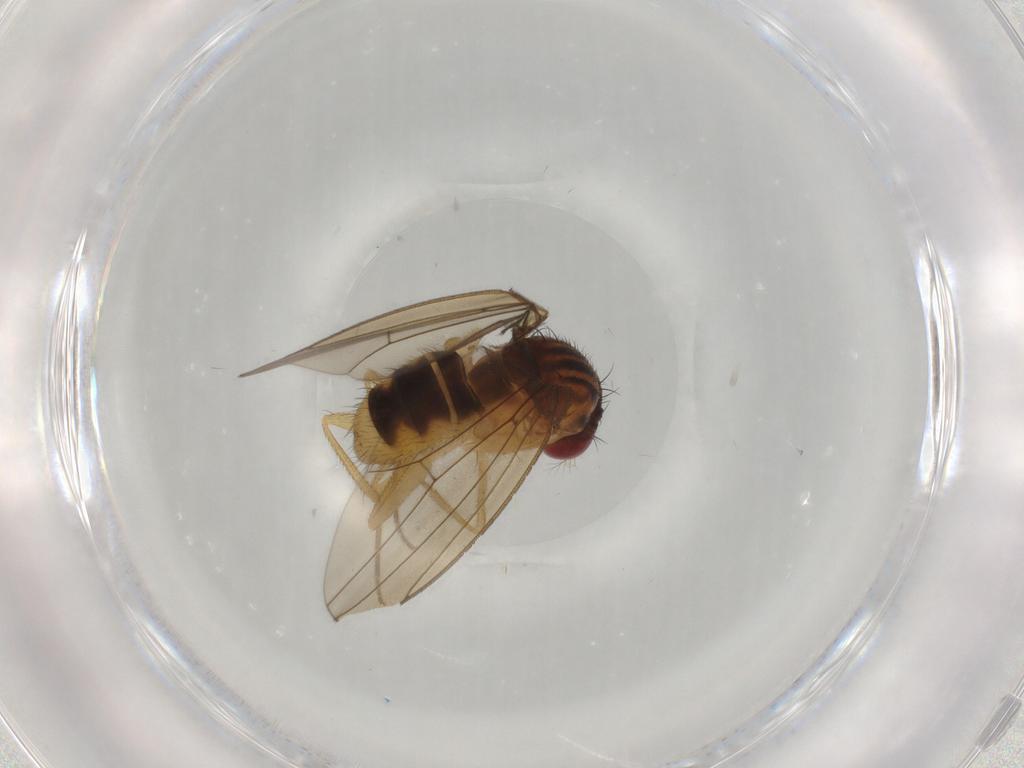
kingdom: Animalia
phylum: Arthropoda
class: Insecta
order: Diptera
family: Drosophilidae
